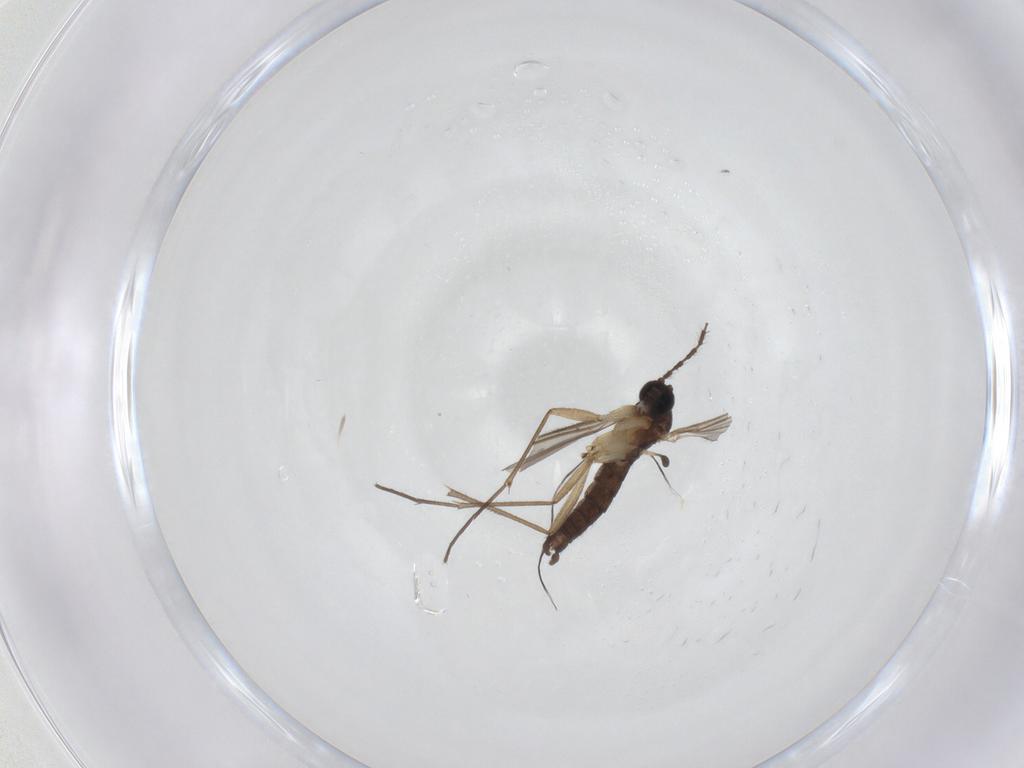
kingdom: Animalia
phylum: Arthropoda
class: Insecta
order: Diptera
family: Sciaridae
